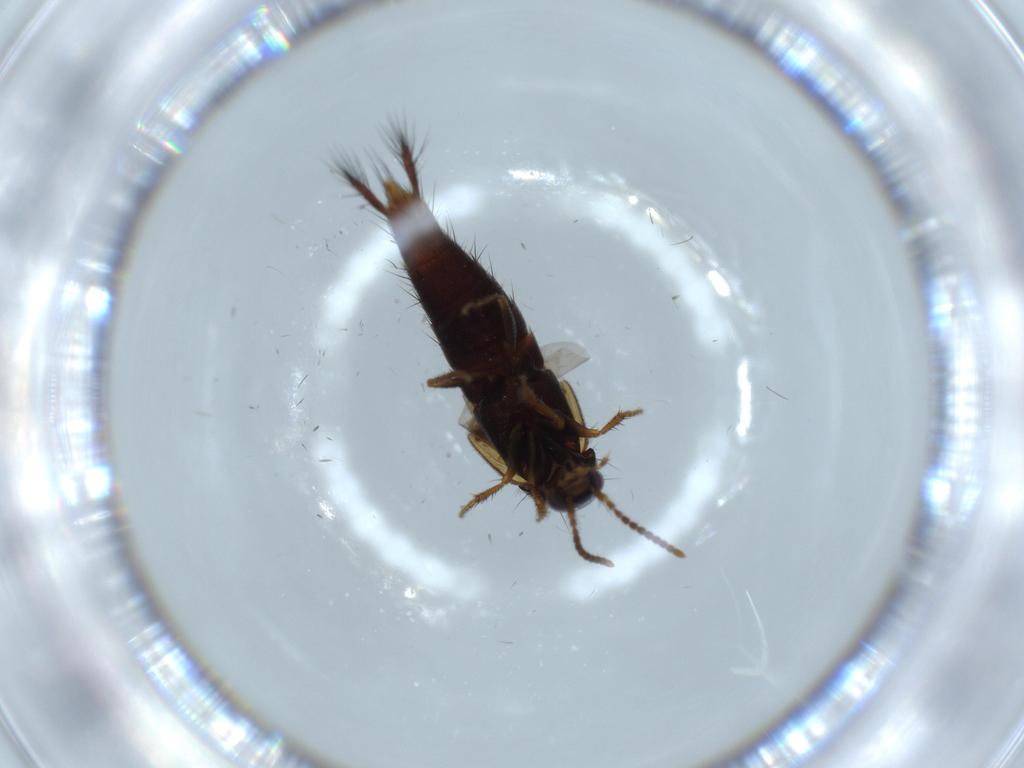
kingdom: Animalia
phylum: Arthropoda
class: Insecta
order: Coleoptera
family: Staphylinidae
